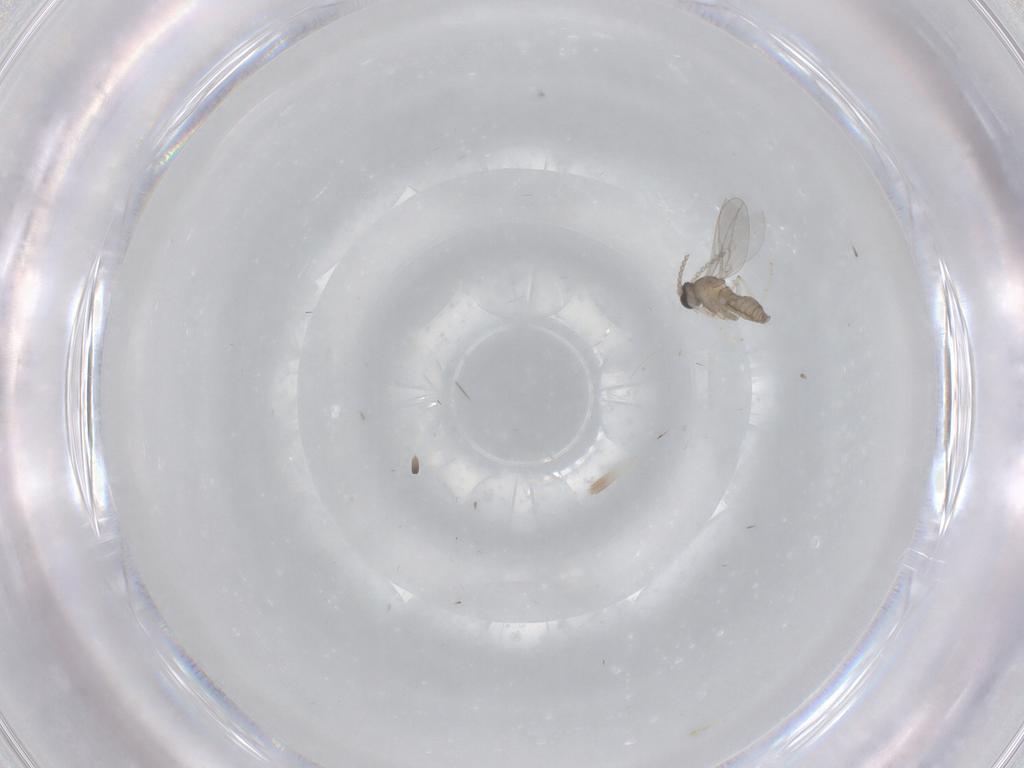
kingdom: Animalia
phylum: Arthropoda
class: Insecta
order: Diptera
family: Cecidomyiidae
